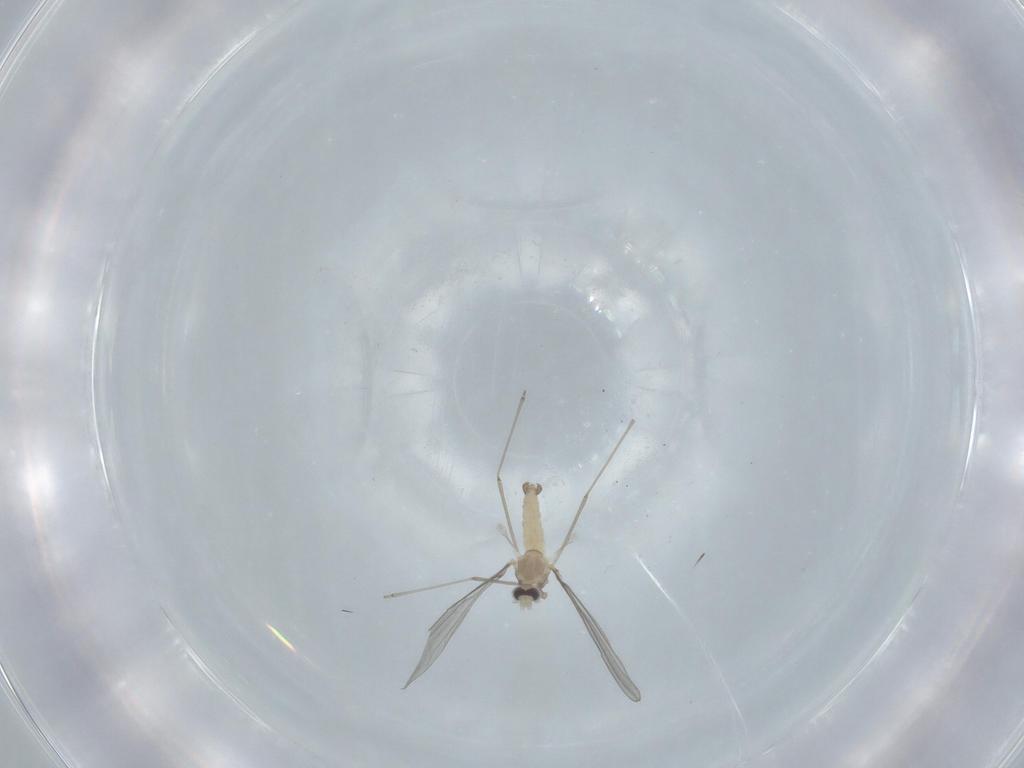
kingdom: Animalia
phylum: Arthropoda
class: Insecta
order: Diptera
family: Cecidomyiidae
